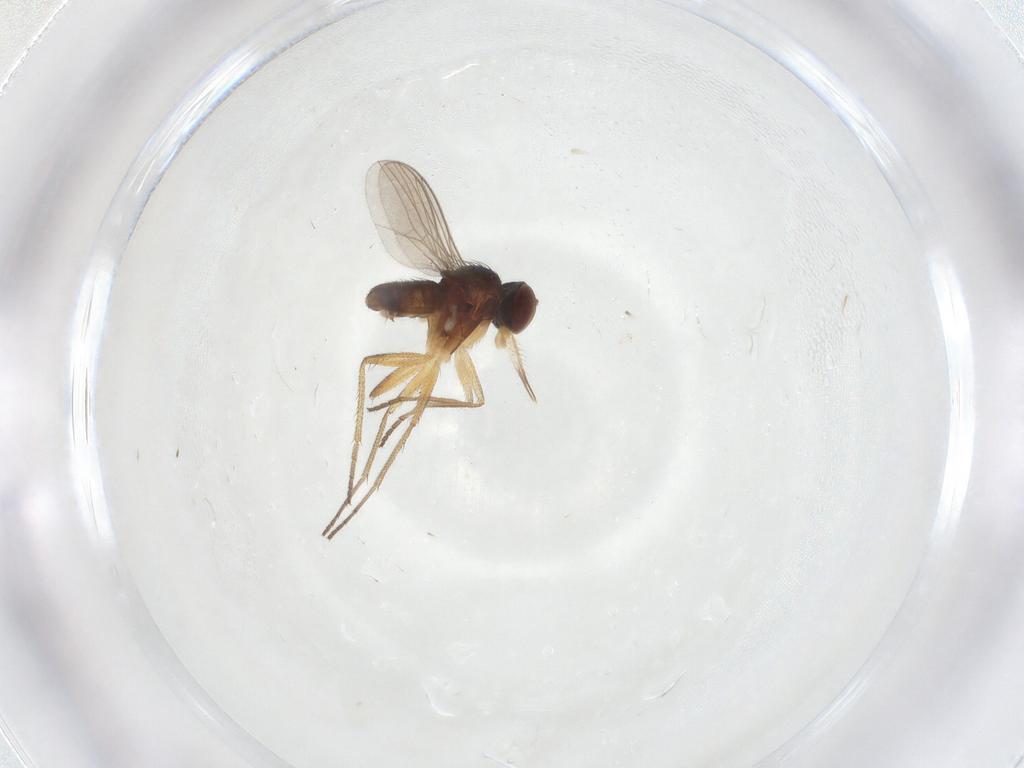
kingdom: Animalia
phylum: Arthropoda
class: Insecta
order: Diptera
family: Dolichopodidae
